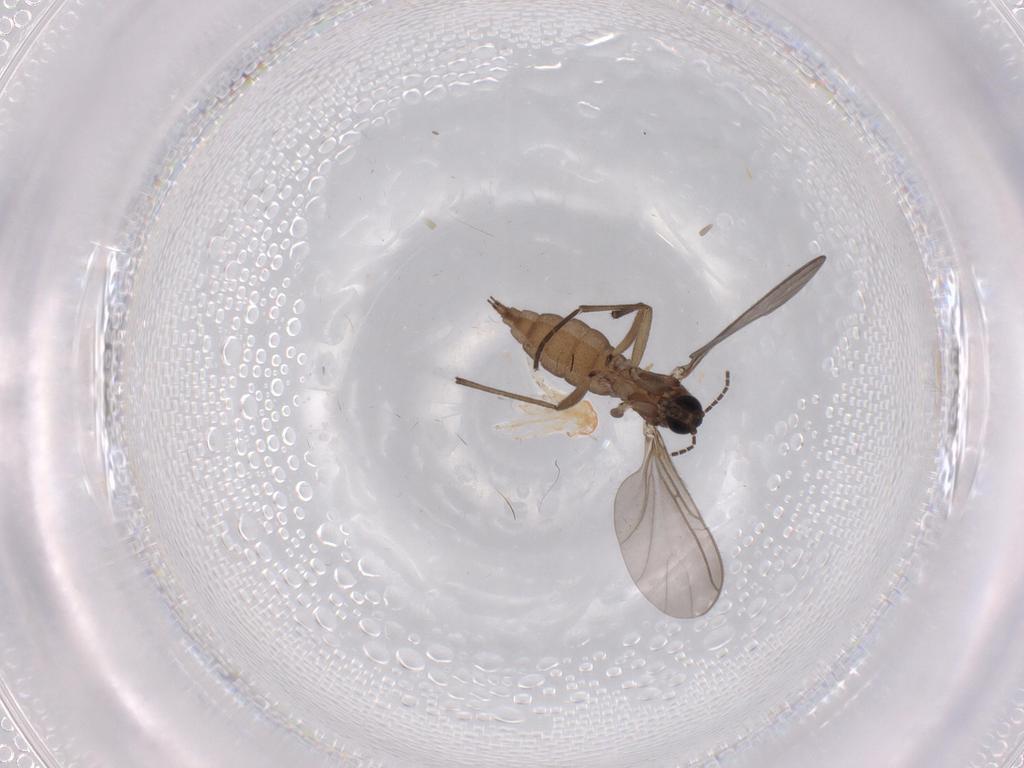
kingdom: Animalia
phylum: Arthropoda
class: Insecta
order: Diptera
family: Sciaridae
